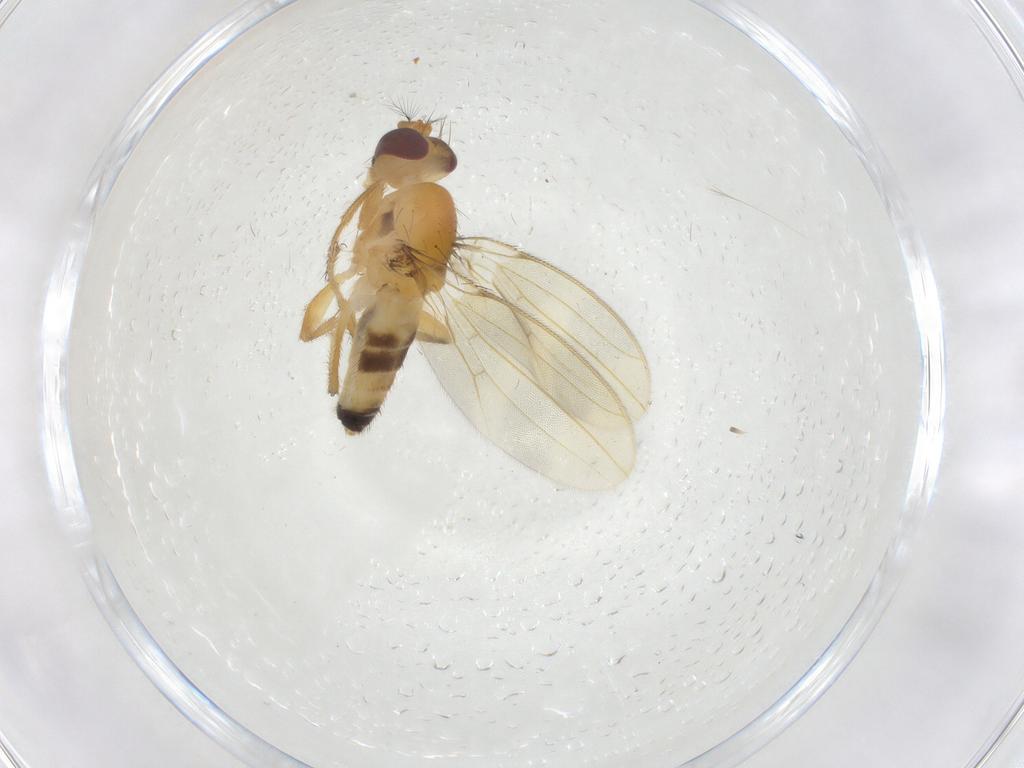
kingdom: Animalia
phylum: Arthropoda
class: Insecta
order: Diptera
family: Periscelididae
